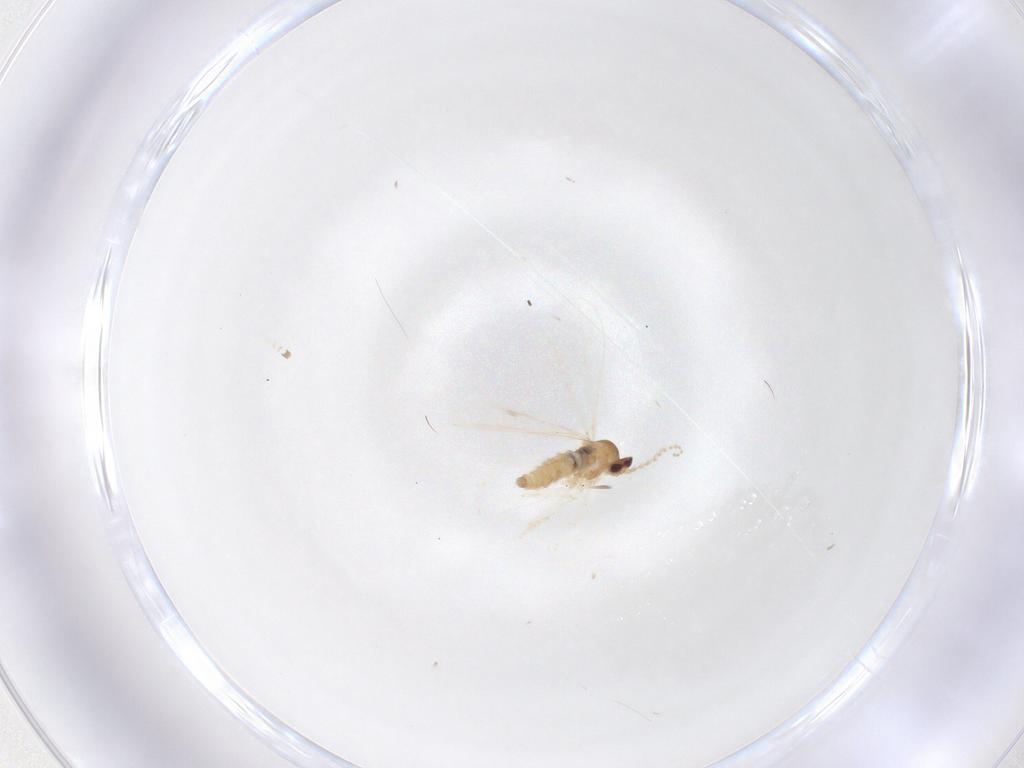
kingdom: Animalia
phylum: Arthropoda
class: Insecta
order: Diptera
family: Cecidomyiidae
